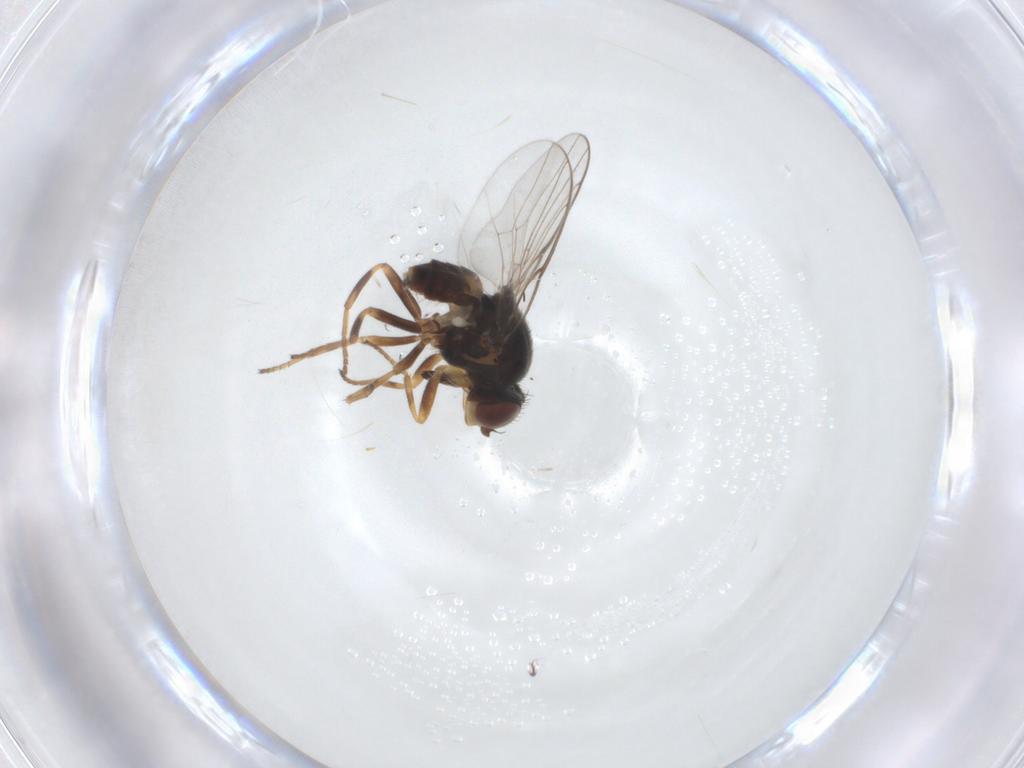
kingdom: Animalia
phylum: Arthropoda
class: Insecta
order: Diptera
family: Chloropidae
